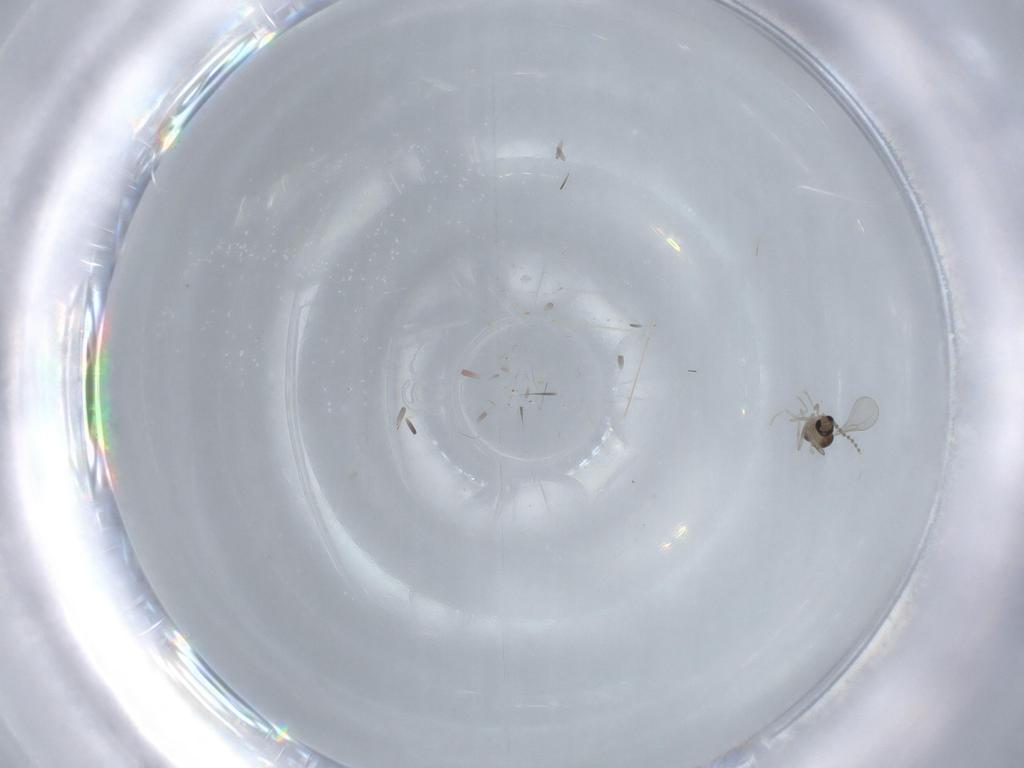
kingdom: Animalia
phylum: Arthropoda
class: Insecta
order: Diptera
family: Cecidomyiidae
